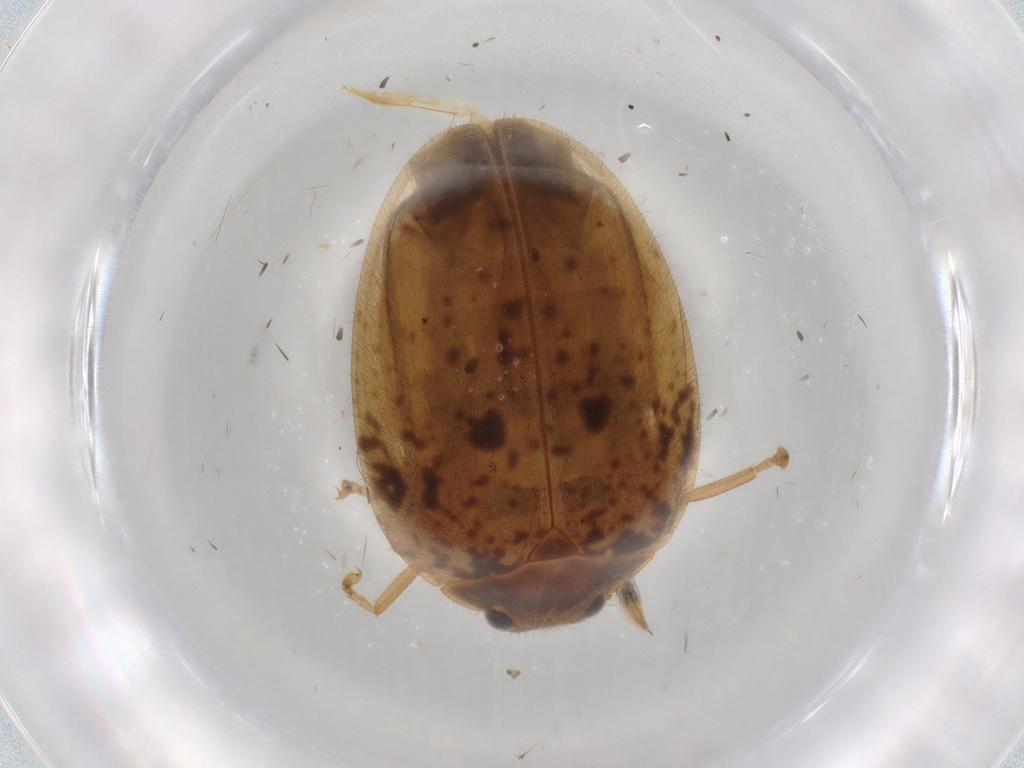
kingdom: Animalia
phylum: Arthropoda
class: Insecta
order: Coleoptera
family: Scirtidae
